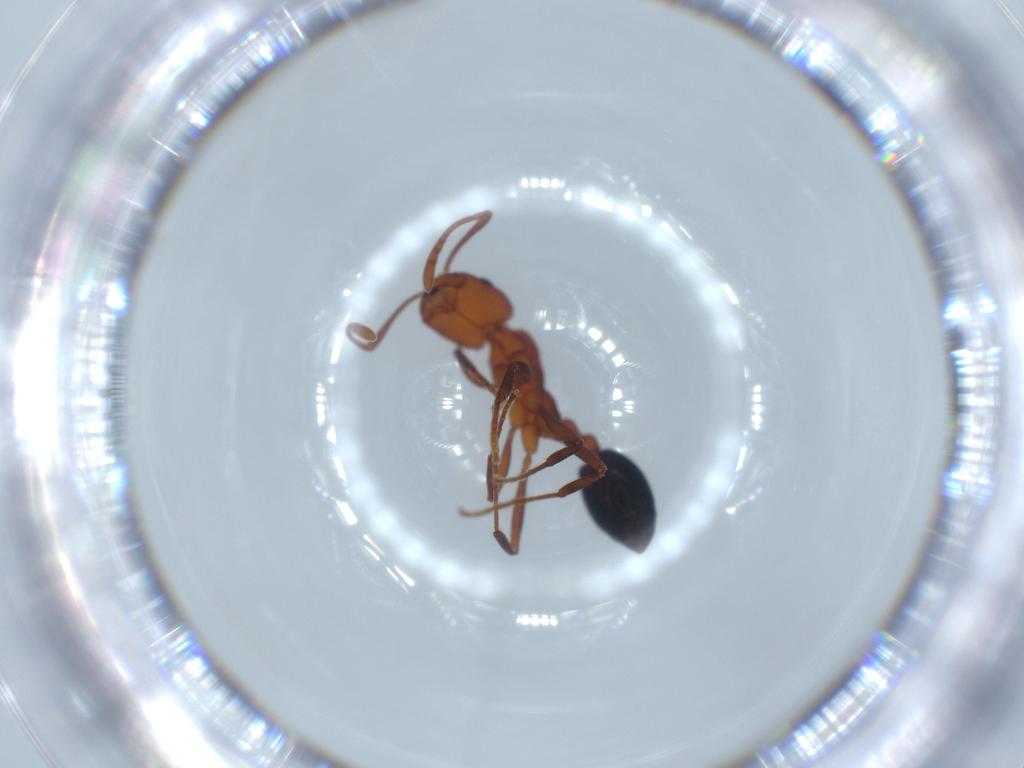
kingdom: Animalia
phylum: Arthropoda
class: Insecta
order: Hymenoptera
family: Formicidae
